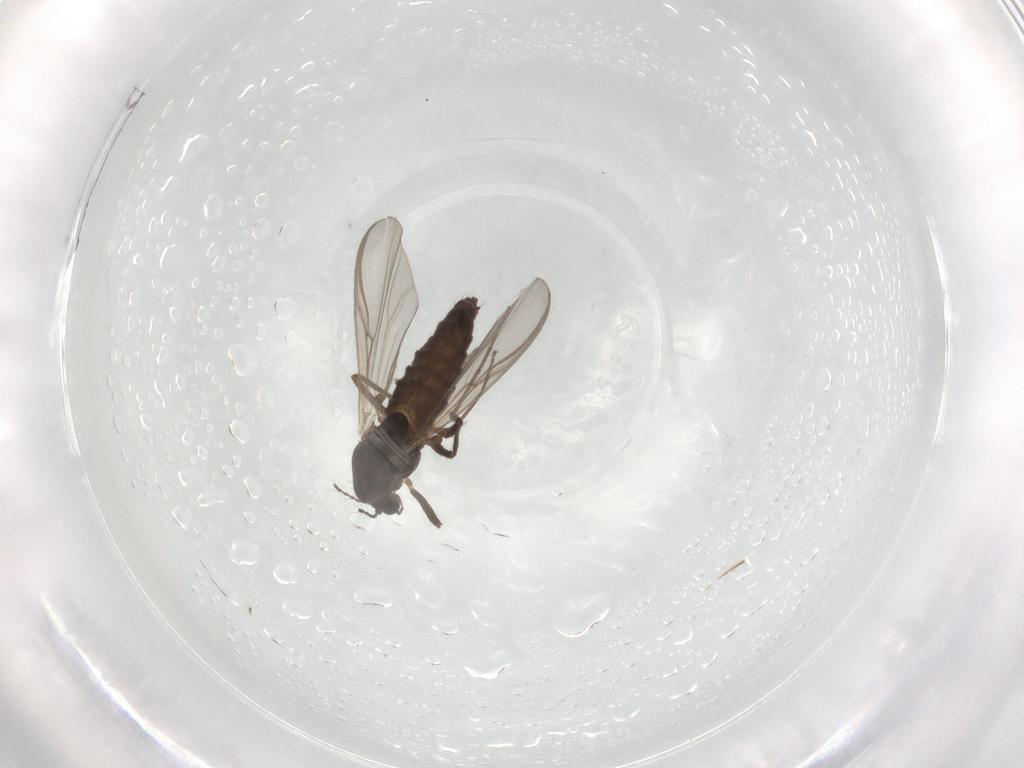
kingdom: Animalia
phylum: Arthropoda
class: Insecta
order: Diptera
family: Chironomidae
